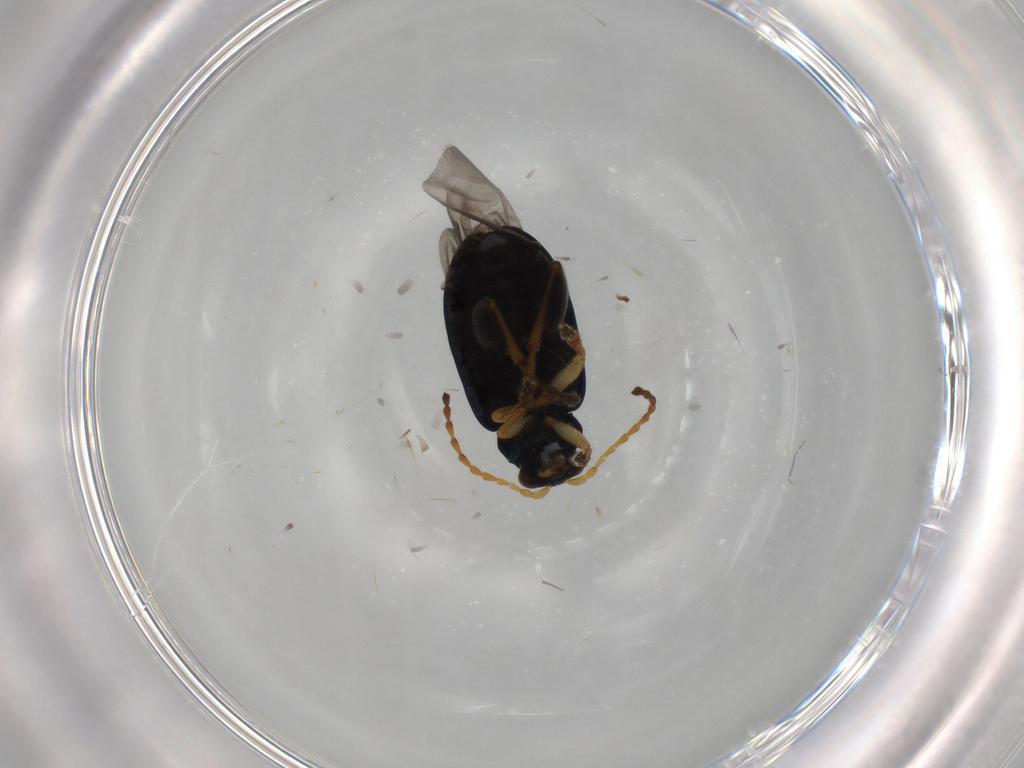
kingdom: Animalia
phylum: Arthropoda
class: Insecta
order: Coleoptera
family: Chrysomelidae
